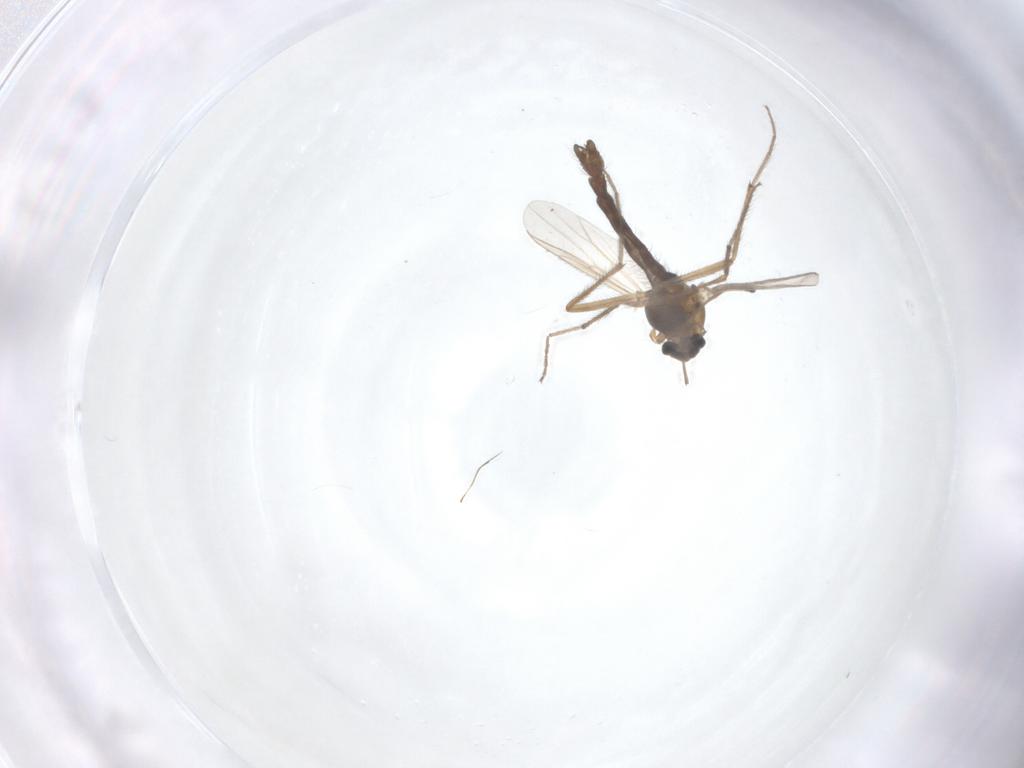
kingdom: Animalia
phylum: Arthropoda
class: Insecta
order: Diptera
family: Chironomidae
